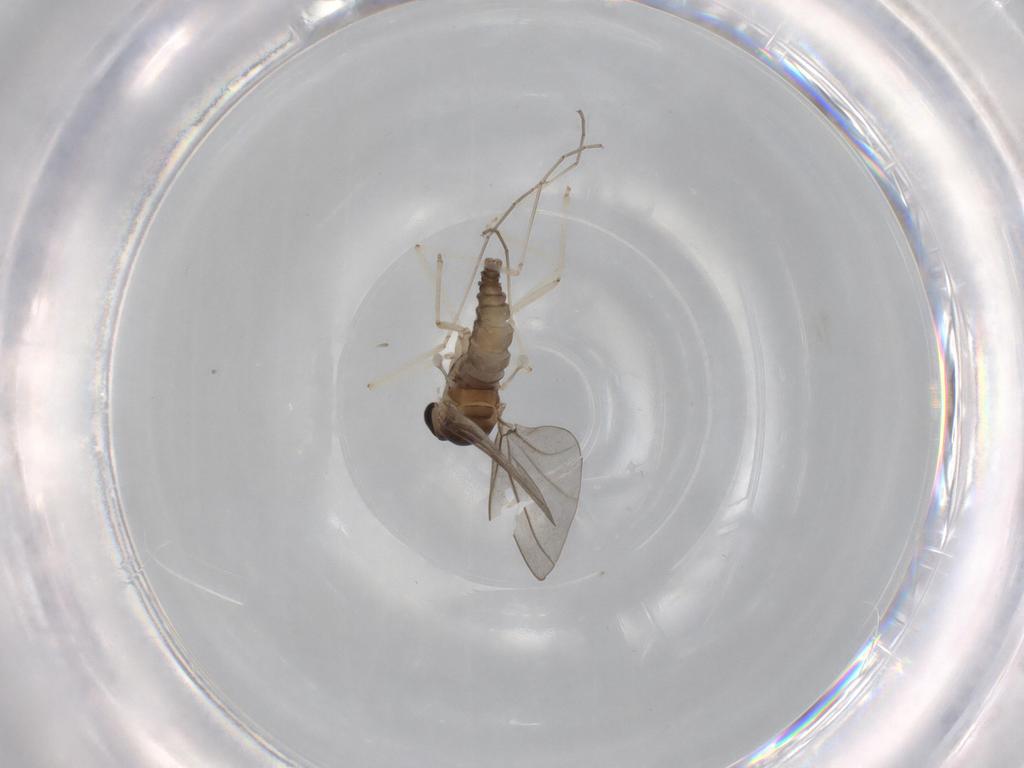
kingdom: Animalia
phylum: Arthropoda
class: Insecta
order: Diptera
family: Cecidomyiidae
